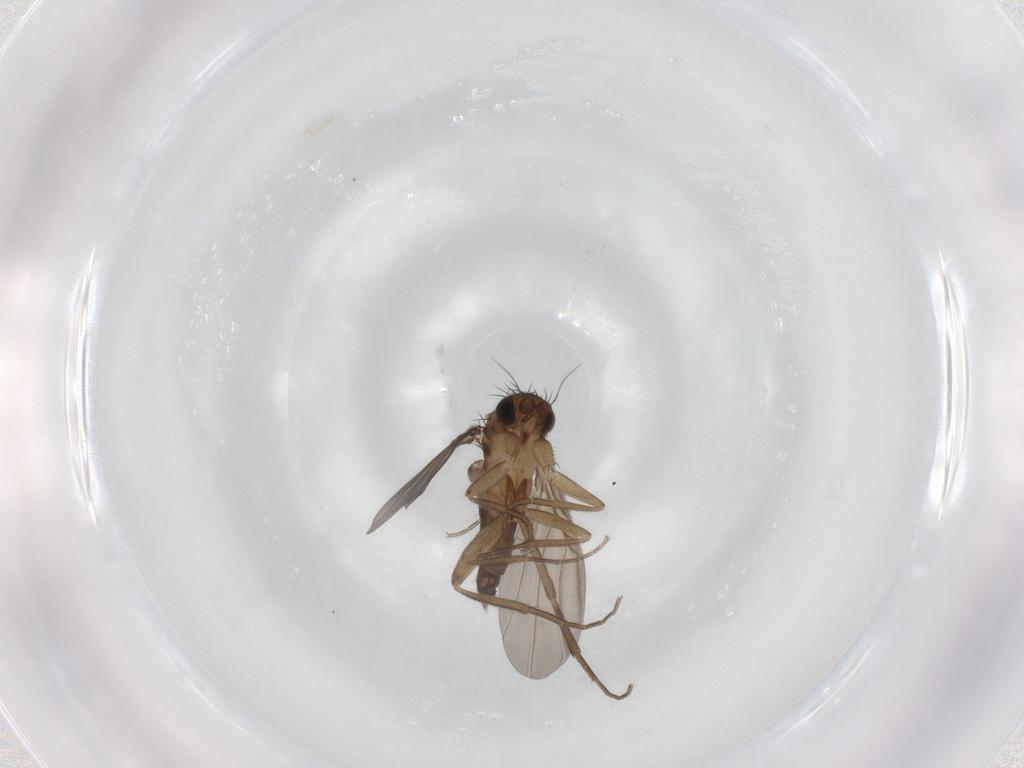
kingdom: Animalia
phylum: Arthropoda
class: Insecta
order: Diptera
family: Phoridae
